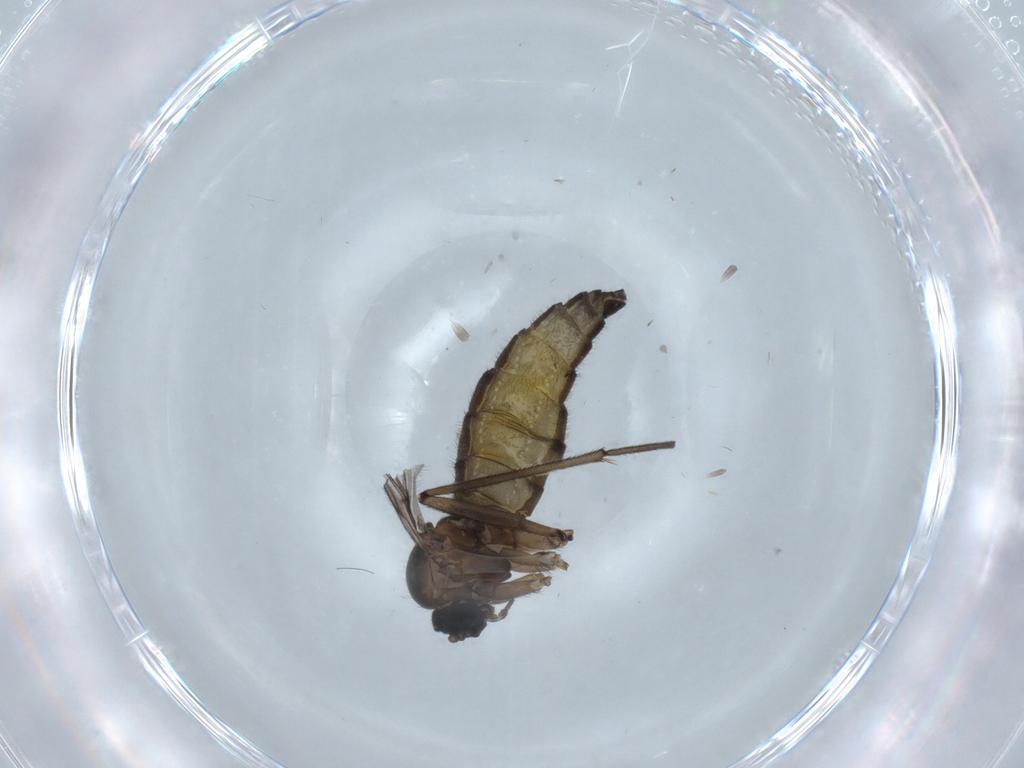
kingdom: Animalia
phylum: Arthropoda
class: Insecta
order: Diptera
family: Sciaridae
